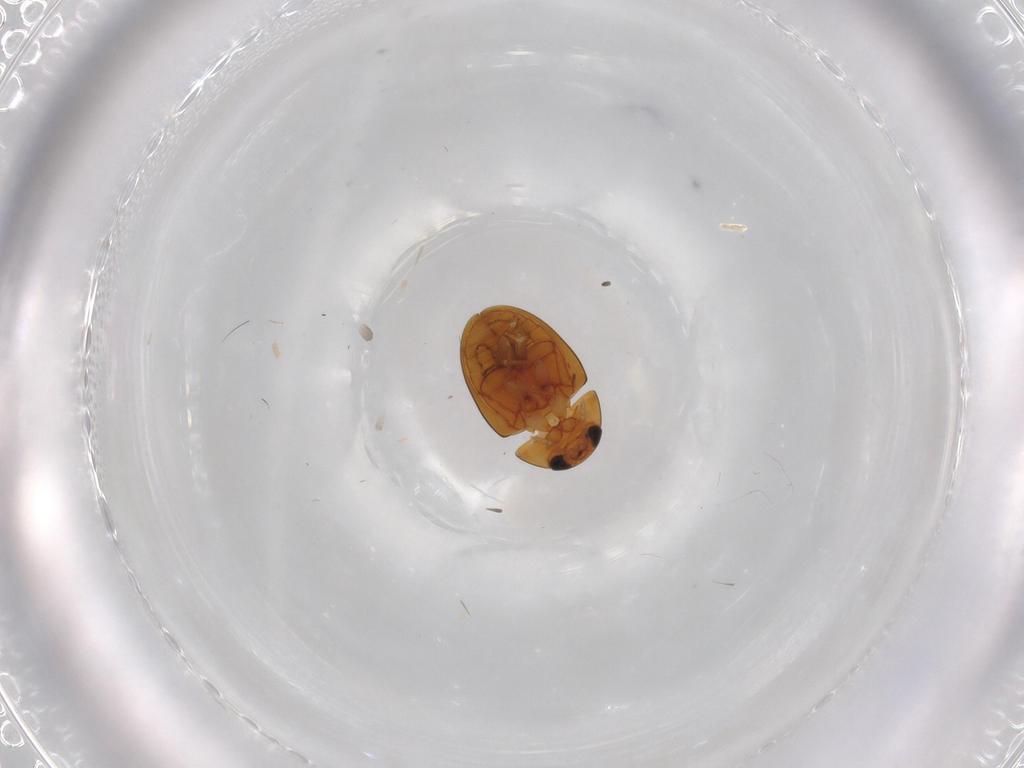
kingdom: Animalia
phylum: Arthropoda
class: Insecta
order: Coleoptera
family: Phalacridae
